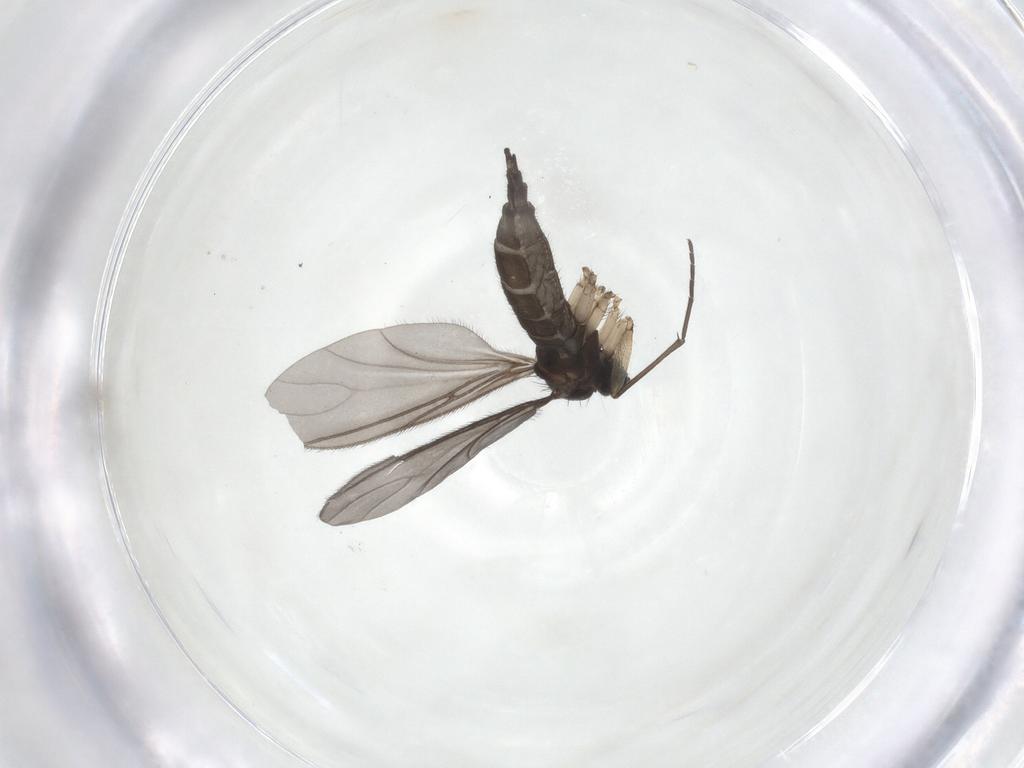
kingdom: Animalia
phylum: Arthropoda
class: Insecta
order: Diptera
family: Sciaridae
